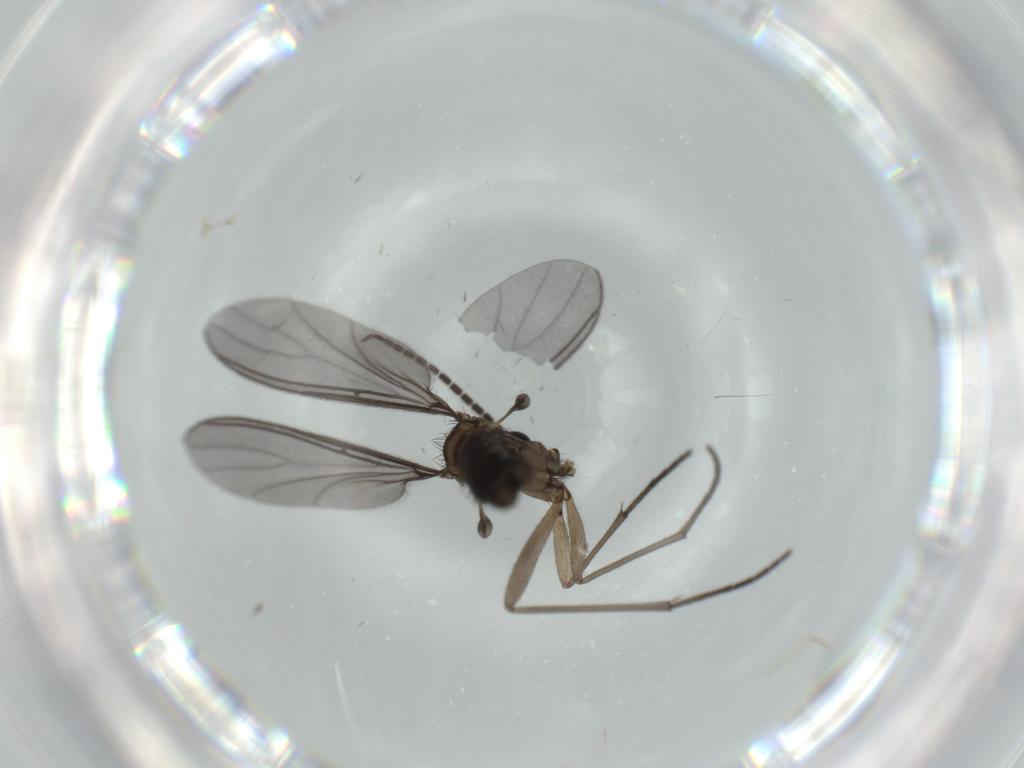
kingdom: Animalia
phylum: Arthropoda
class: Insecta
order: Diptera
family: Sciaridae
